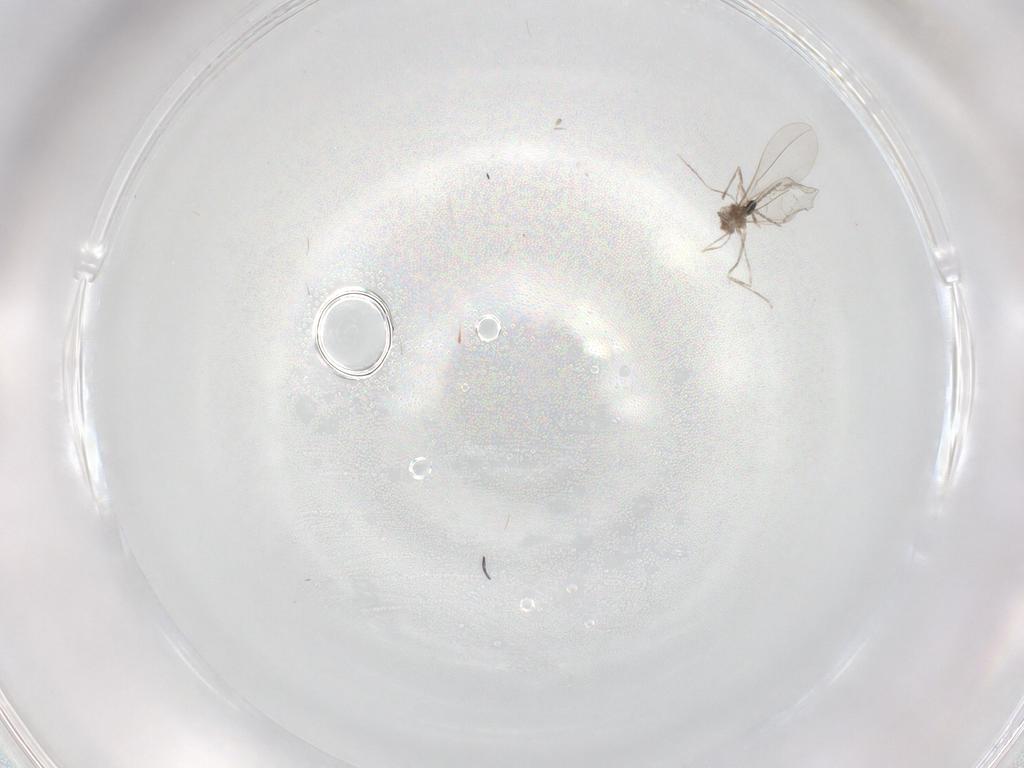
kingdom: Animalia
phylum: Arthropoda
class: Insecta
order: Diptera
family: Cecidomyiidae
